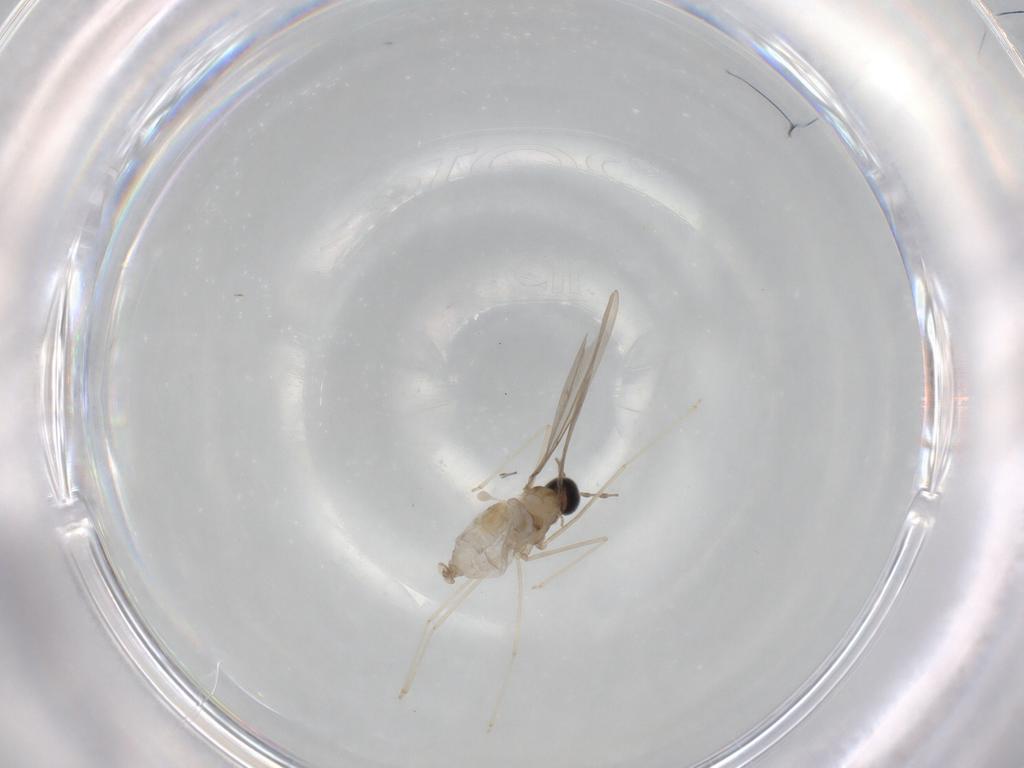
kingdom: Animalia
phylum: Arthropoda
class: Insecta
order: Diptera
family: Cecidomyiidae
